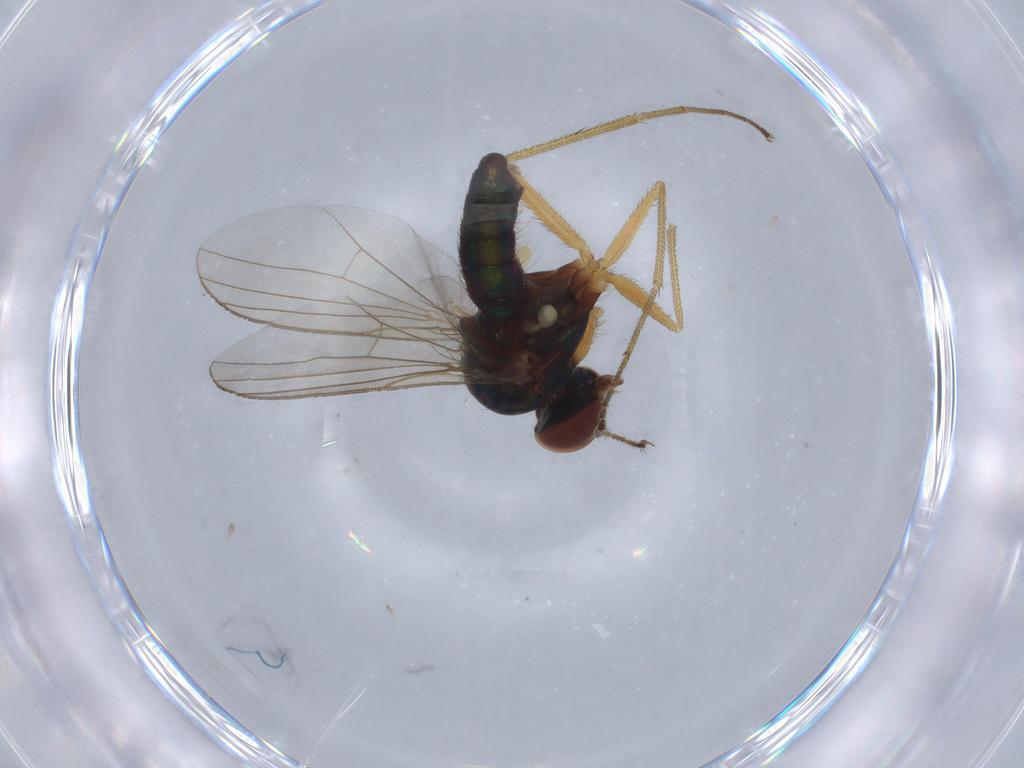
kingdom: Animalia
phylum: Arthropoda
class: Insecta
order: Diptera
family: Dolichopodidae
